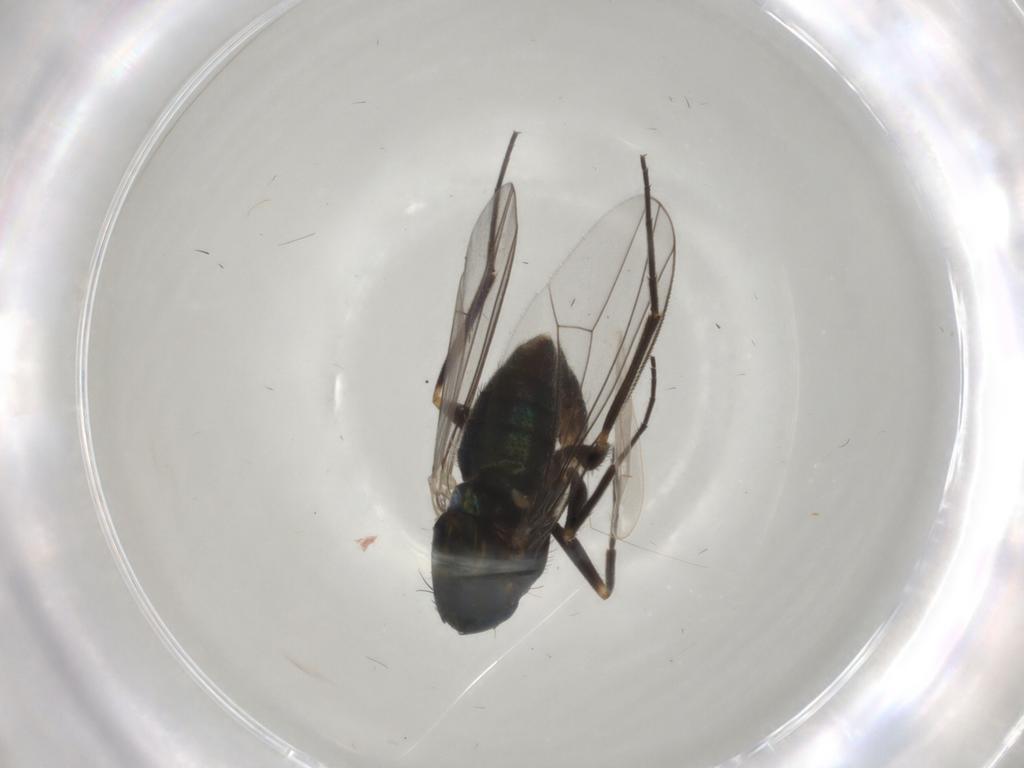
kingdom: Animalia
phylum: Arthropoda
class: Insecta
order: Diptera
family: Dolichopodidae
